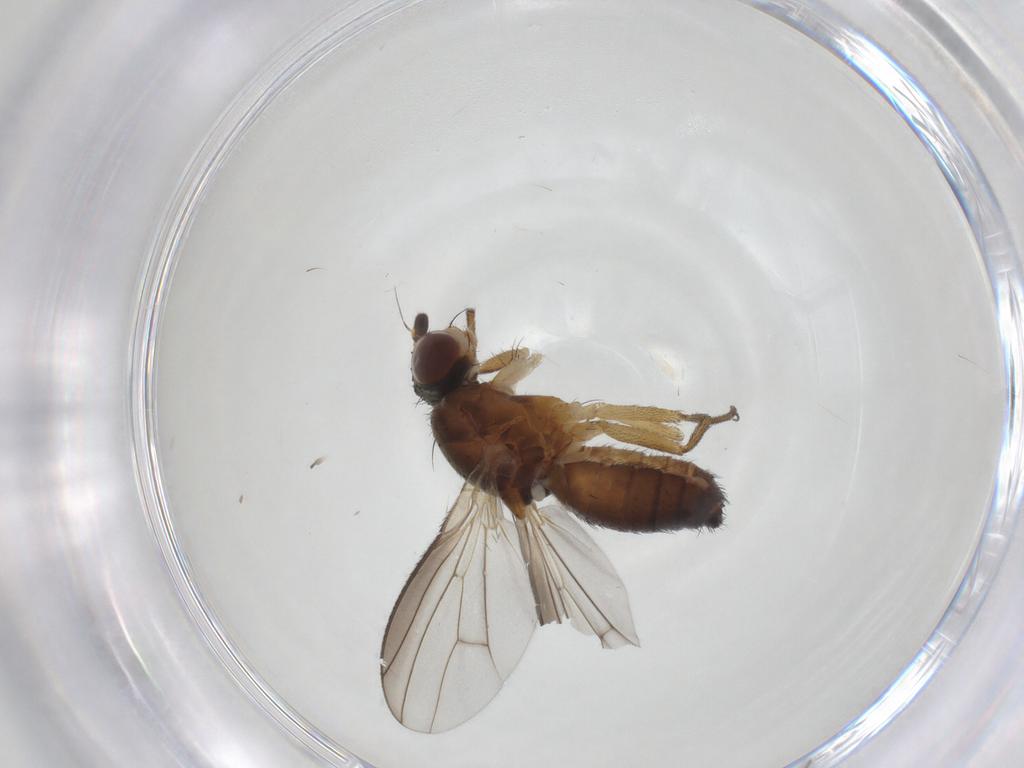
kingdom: Animalia
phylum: Arthropoda
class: Insecta
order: Diptera
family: Heleomyzidae
